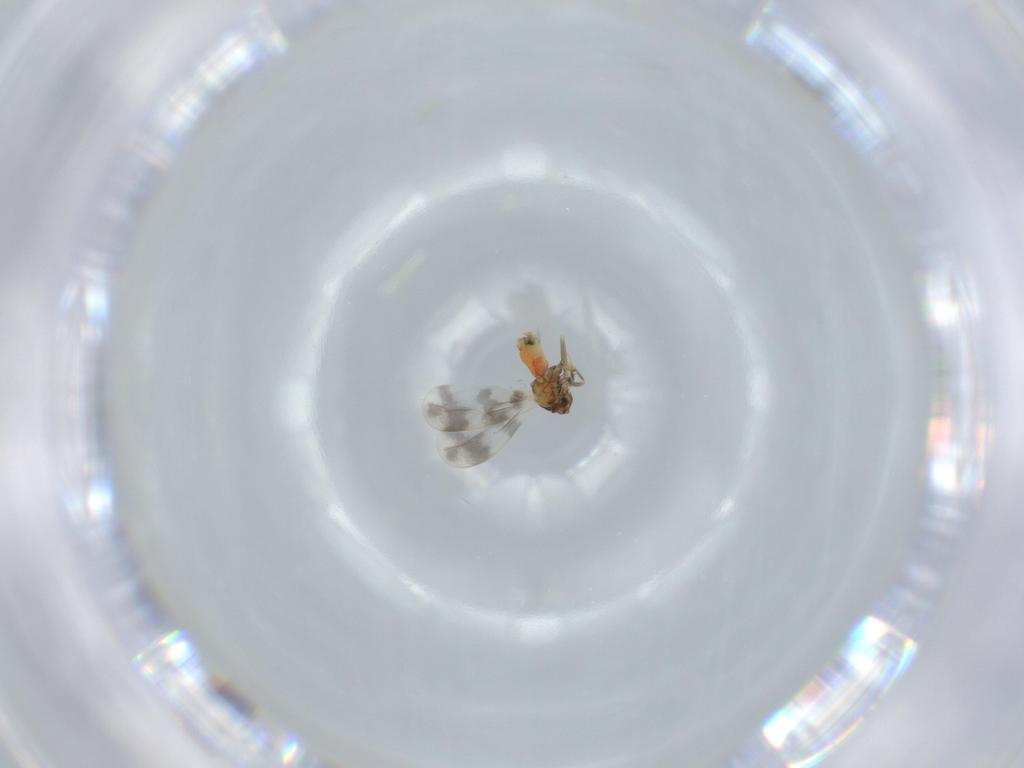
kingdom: Animalia
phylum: Arthropoda
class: Insecta
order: Hemiptera
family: Aleyrodidae
